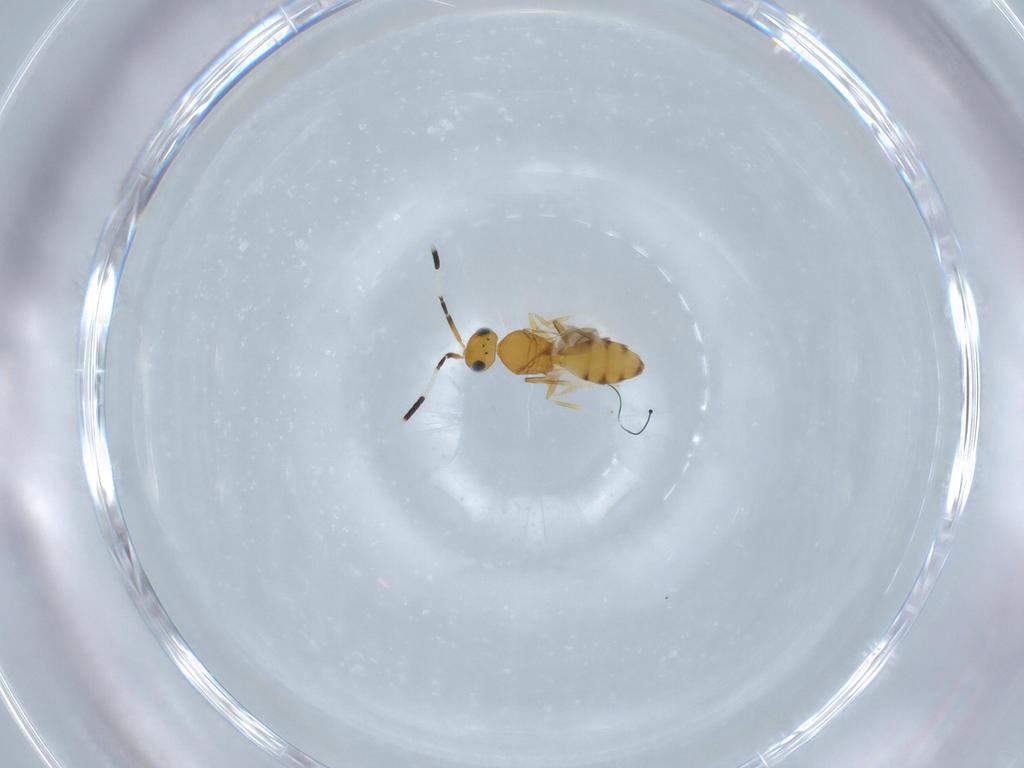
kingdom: Animalia
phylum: Arthropoda
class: Insecta
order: Hymenoptera
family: Scelionidae
